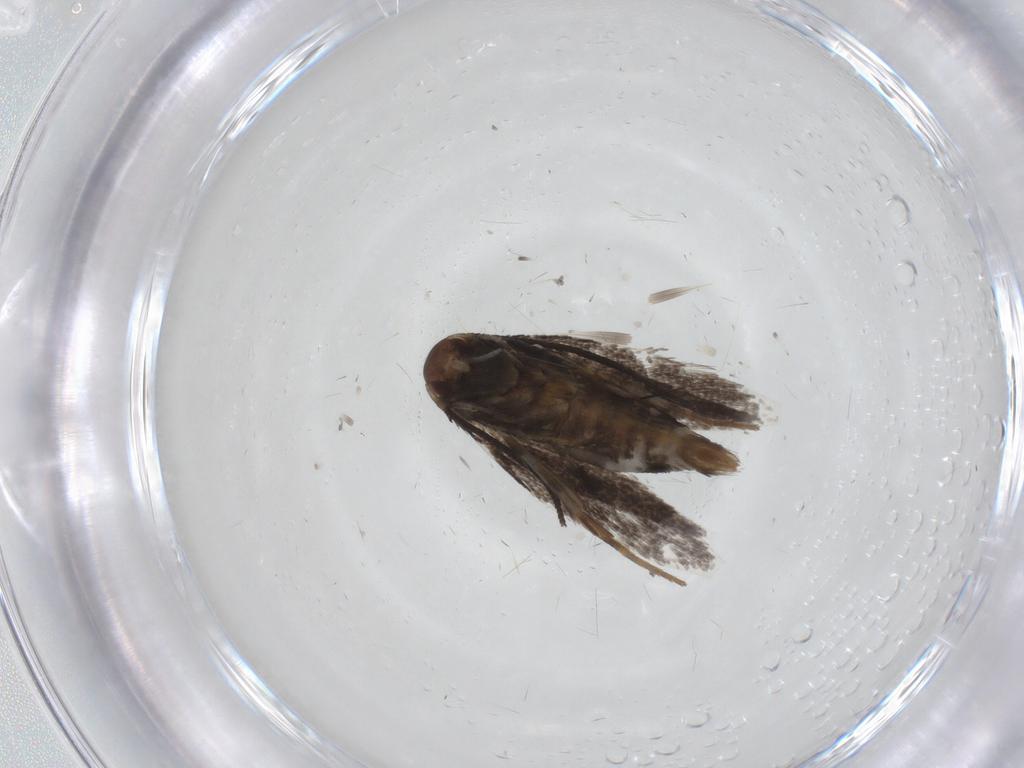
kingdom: Animalia
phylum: Arthropoda
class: Insecta
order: Lepidoptera
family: Elachistidae
